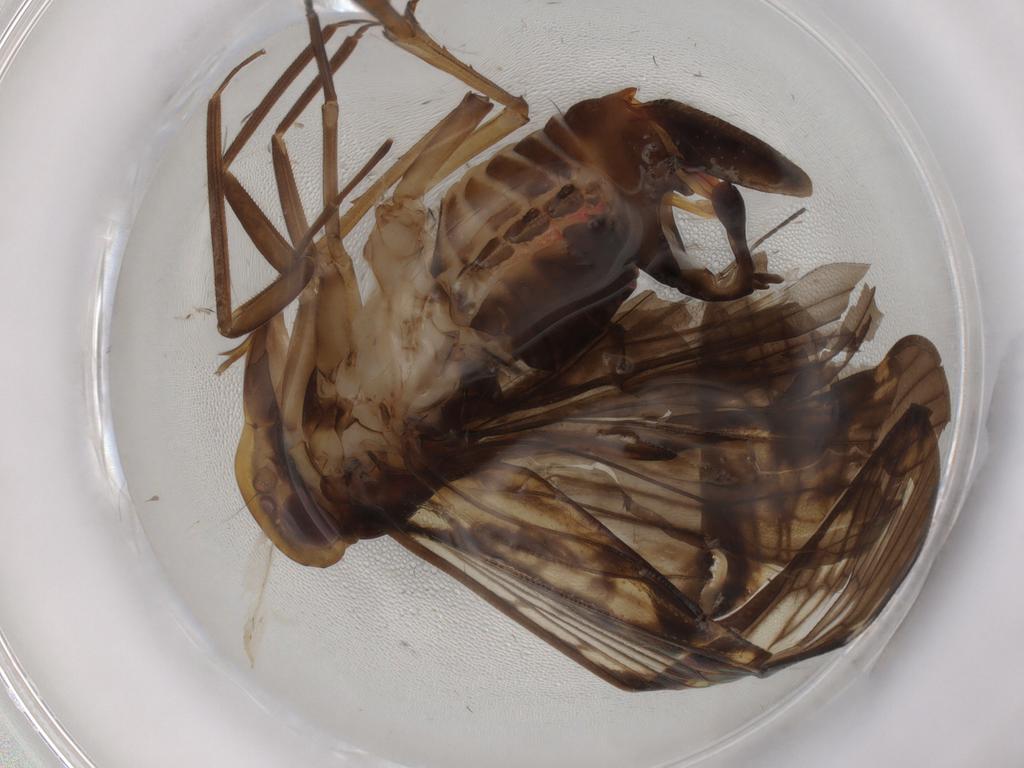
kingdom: Animalia
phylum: Arthropoda
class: Insecta
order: Hemiptera
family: Cixiidae
